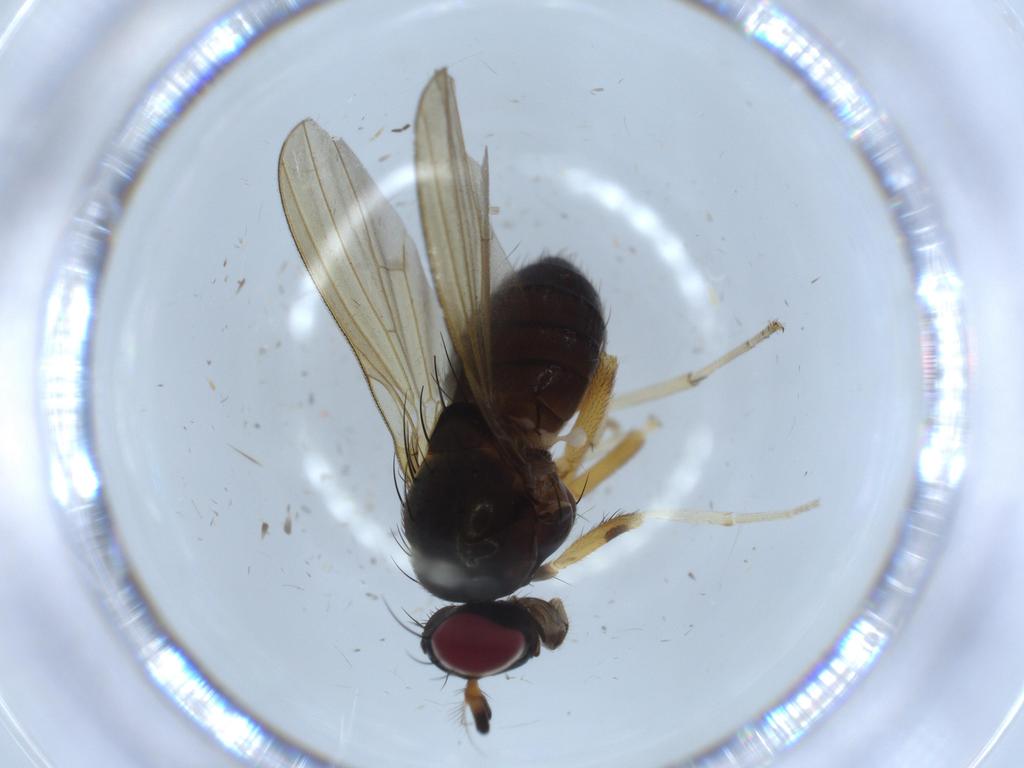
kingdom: Animalia
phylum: Arthropoda
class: Insecta
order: Diptera
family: Sciaridae
